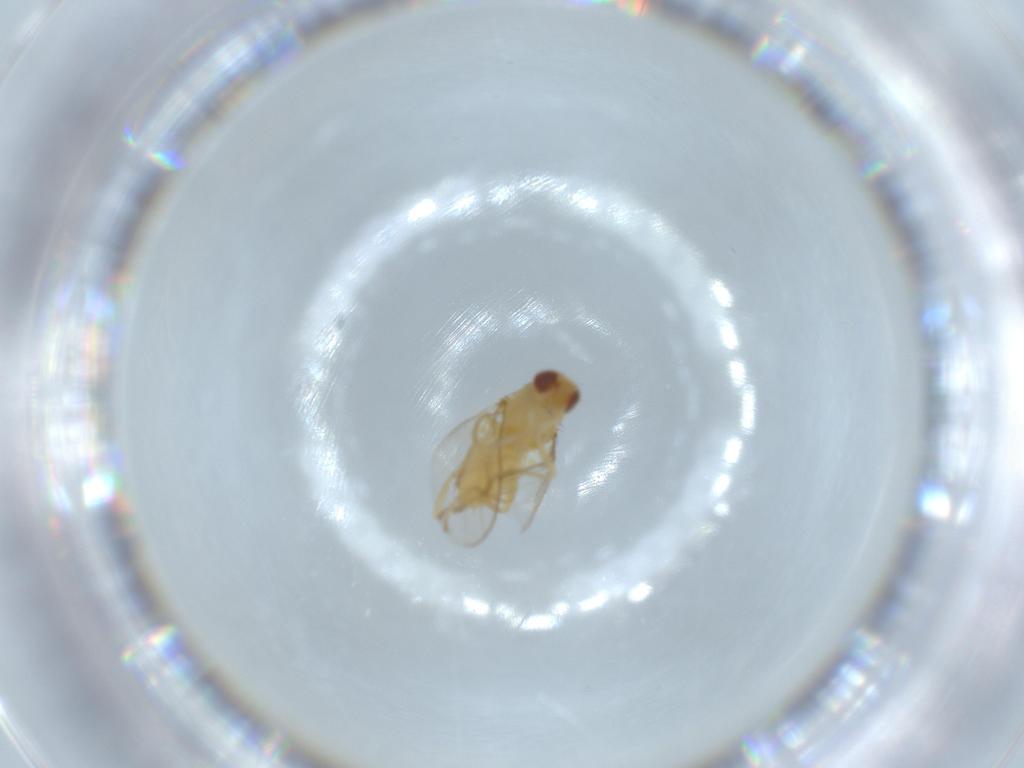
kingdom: Animalia
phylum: Arthropoda
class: Insecta
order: Diptera
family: Chloropidae
